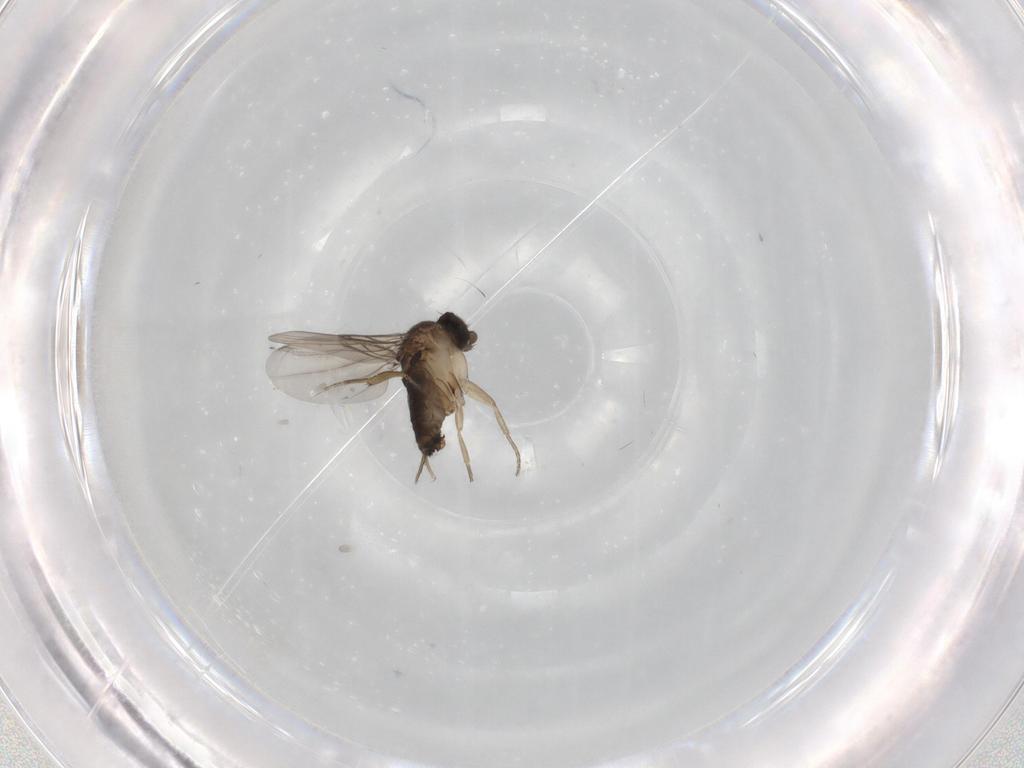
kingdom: Animalia
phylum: Arthropoda
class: Insecta
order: Diptera
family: Phoridae
